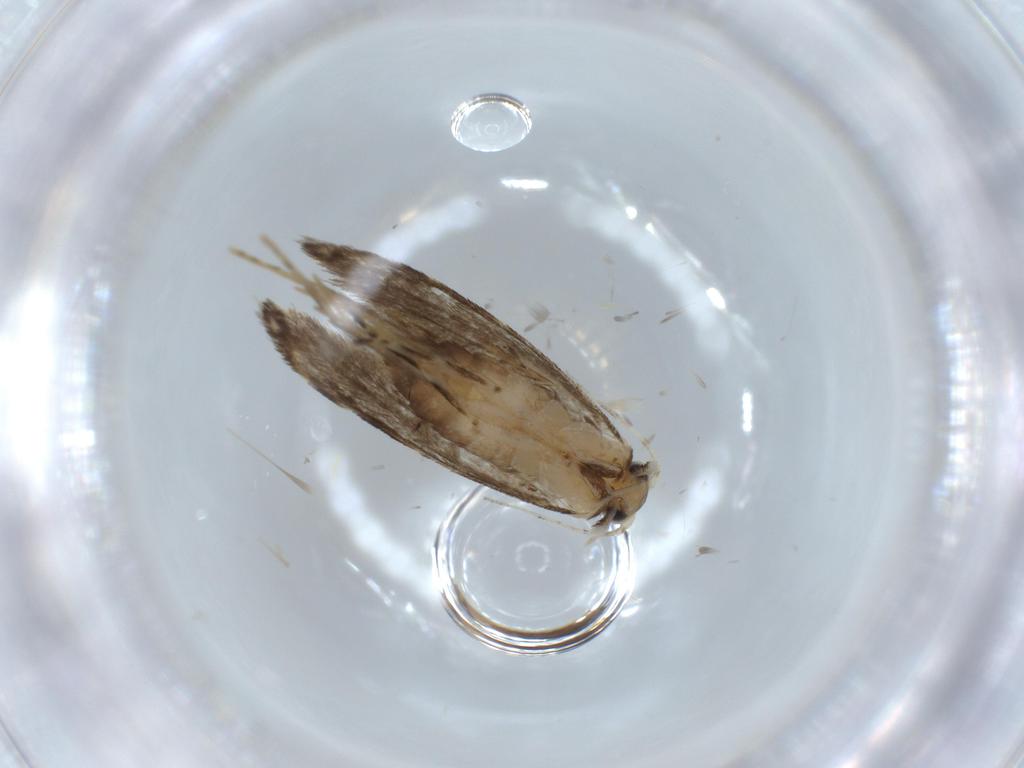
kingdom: Animalia
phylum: Arthropoda
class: Insecta
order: Lepidoptera
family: Tineidae
